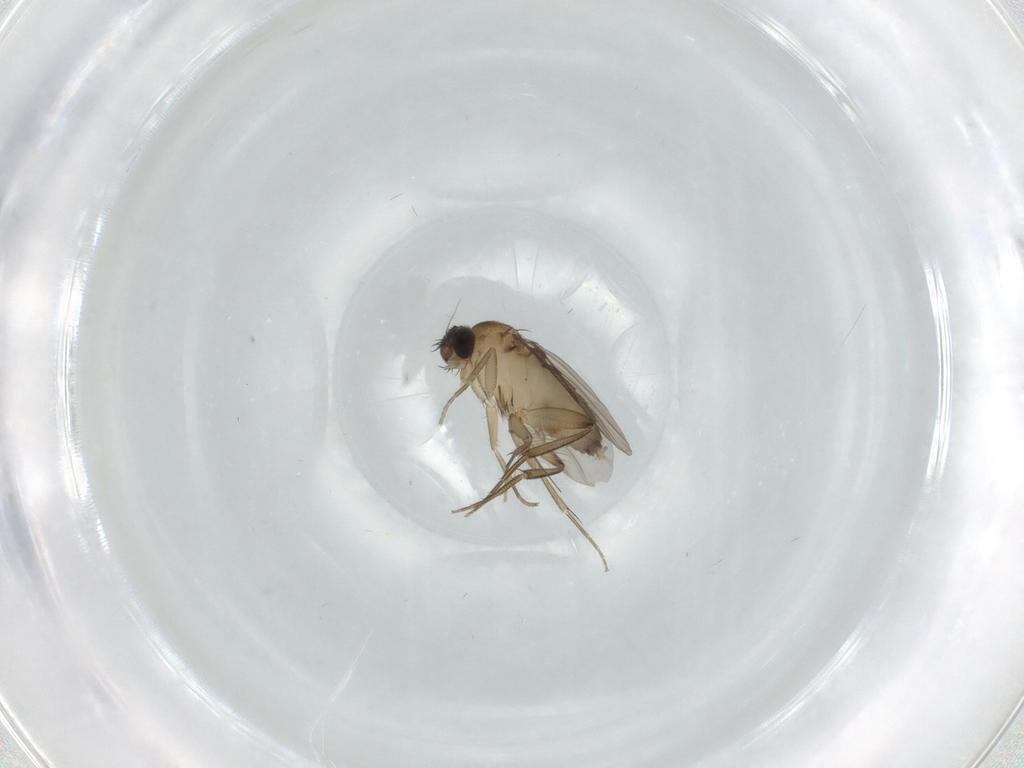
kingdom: Animalia
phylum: Arthropoda
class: Insecta
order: Diptera
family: Phoridae
